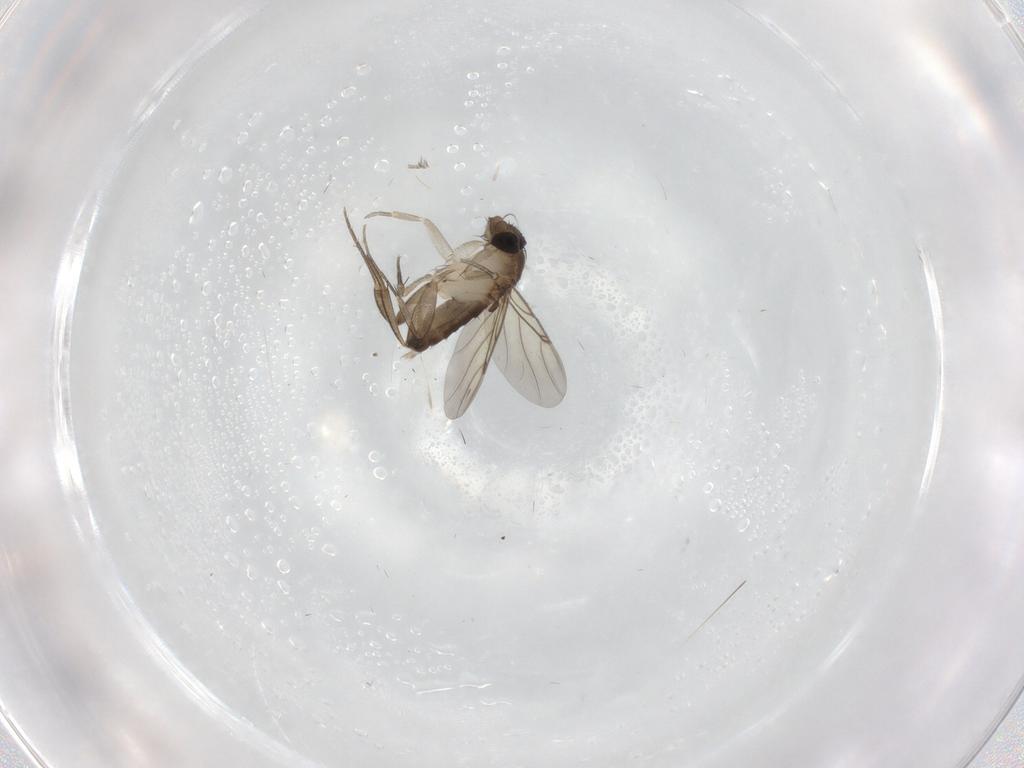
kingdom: Animalia
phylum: Arthropoda
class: Insecta
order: Diptera
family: Phoridae
